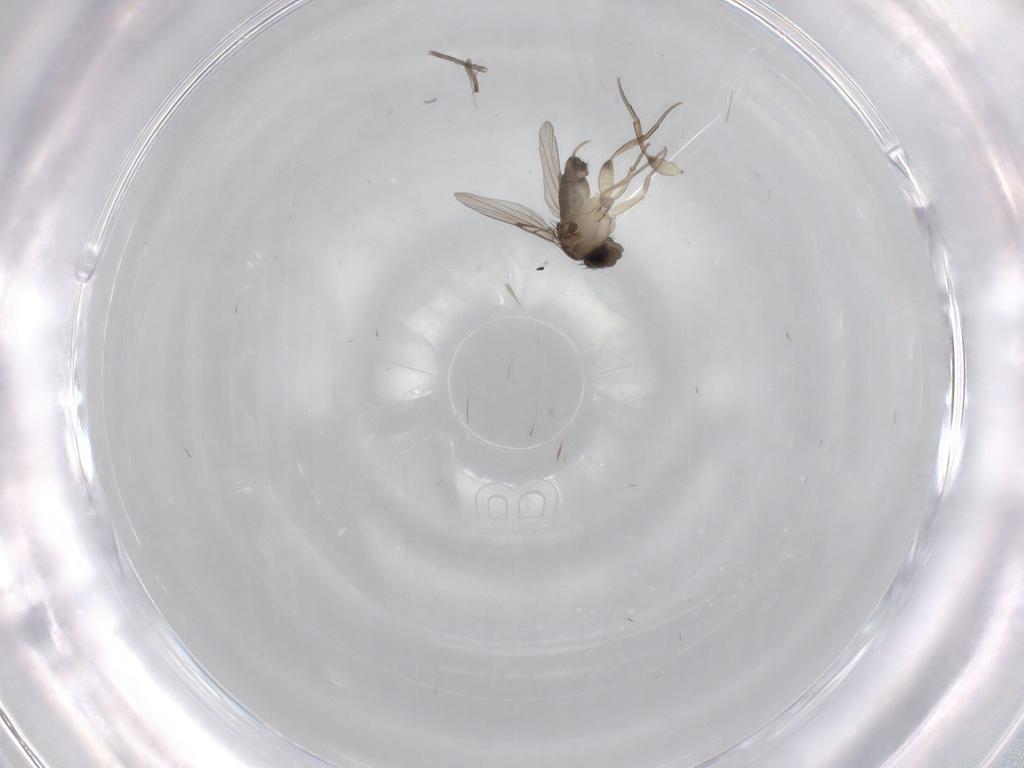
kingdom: Animalia
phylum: Arthropoda
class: Insecta
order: Diptera
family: Phoridae
